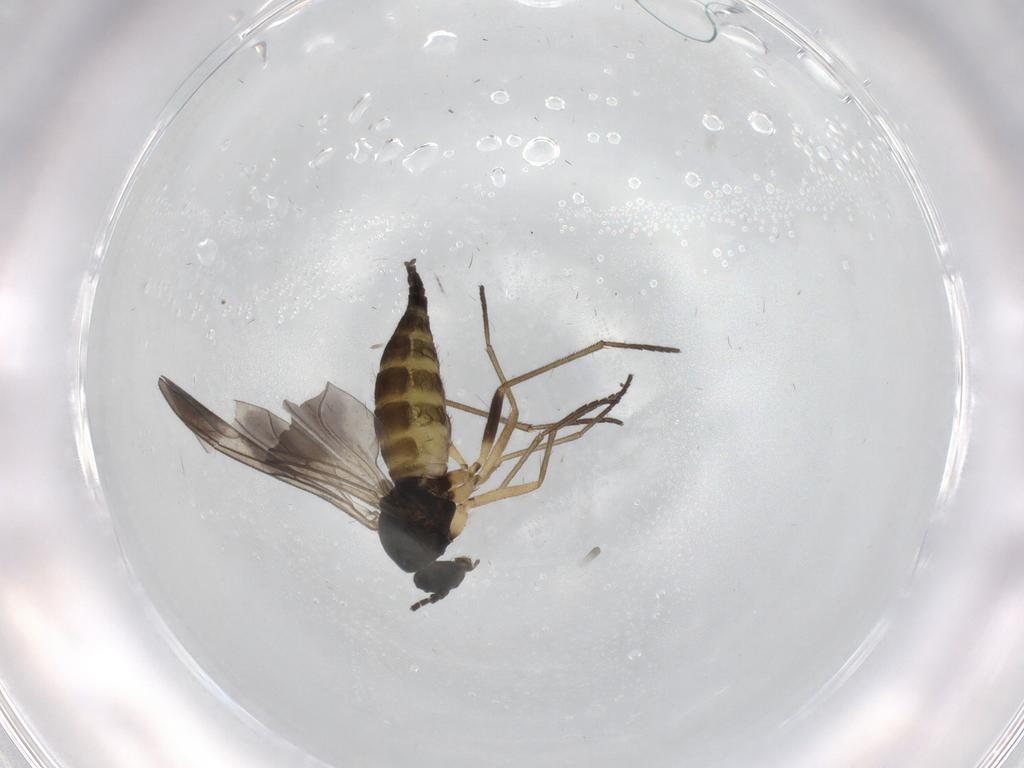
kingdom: Animalia
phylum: Arthropoda
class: Insecta
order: Diptera
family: Sciaridae
